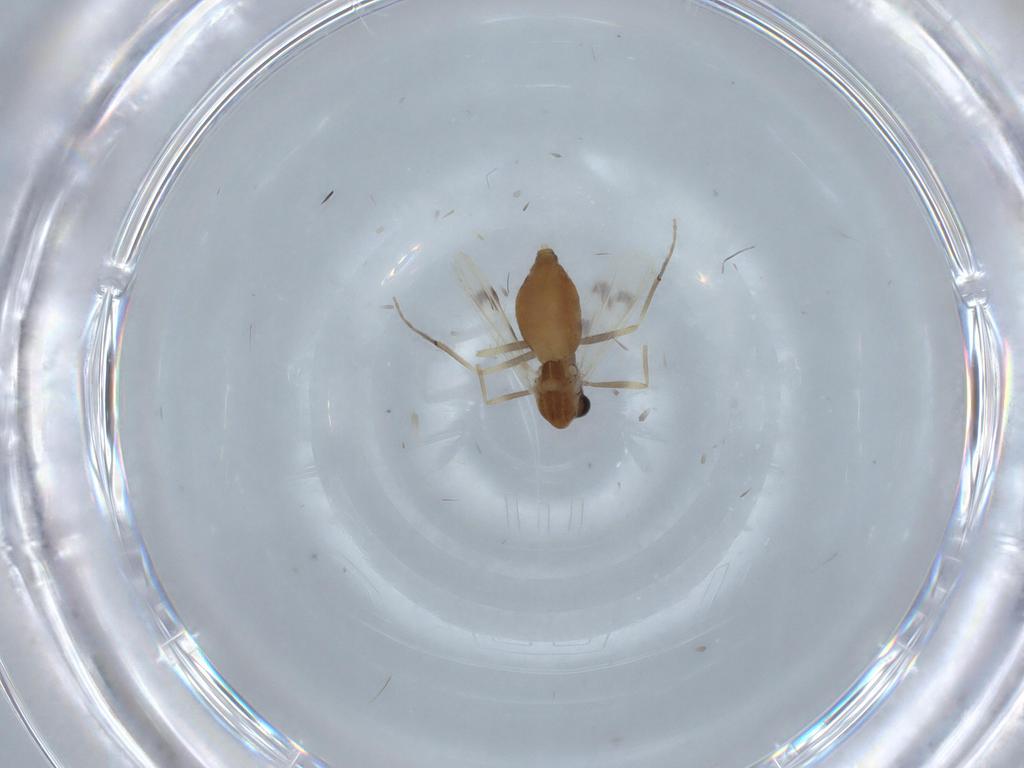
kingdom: Animalia
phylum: Arthropoda
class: Insecta
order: Diptera
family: Chironomidae
